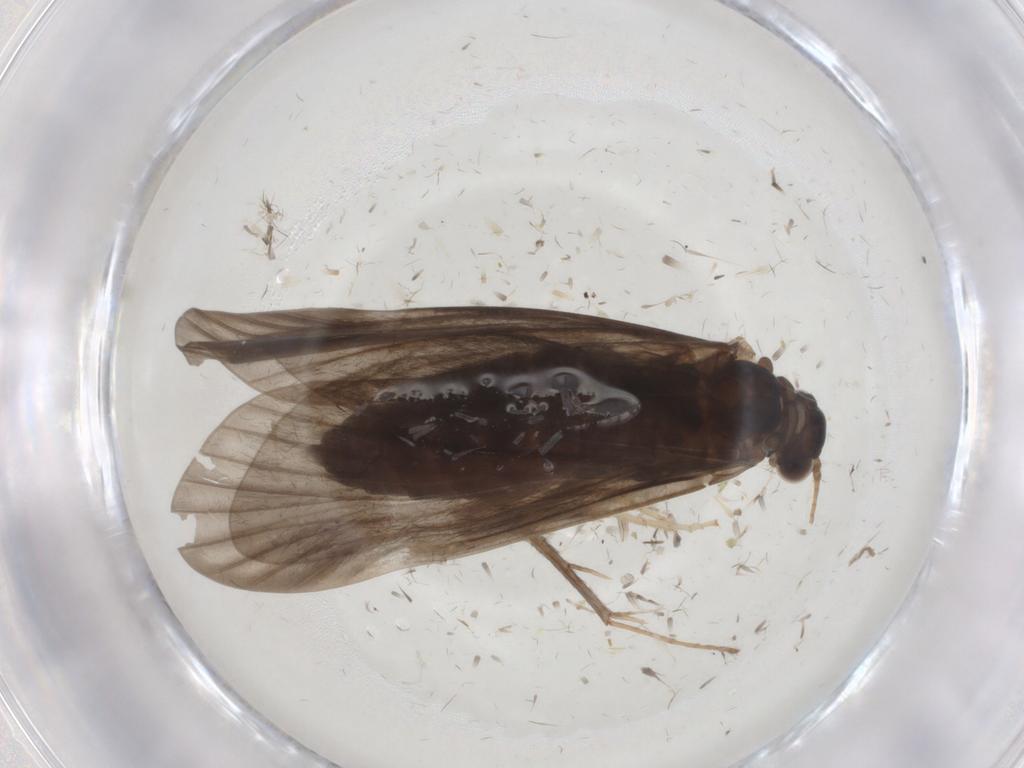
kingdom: Animalia
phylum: Arthropoda
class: Insecta
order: Trichoptera
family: Hydropsychidae
